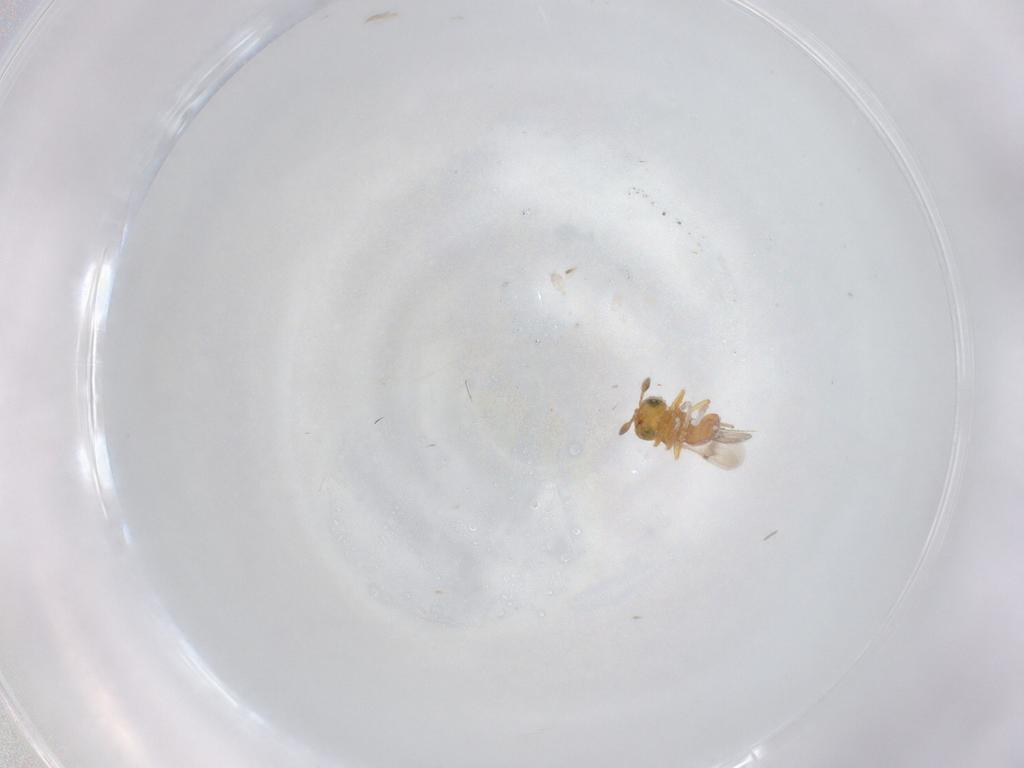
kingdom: Animalia
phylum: Arthropoda
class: Insecta
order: Hymenoptera
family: Scelionidae
